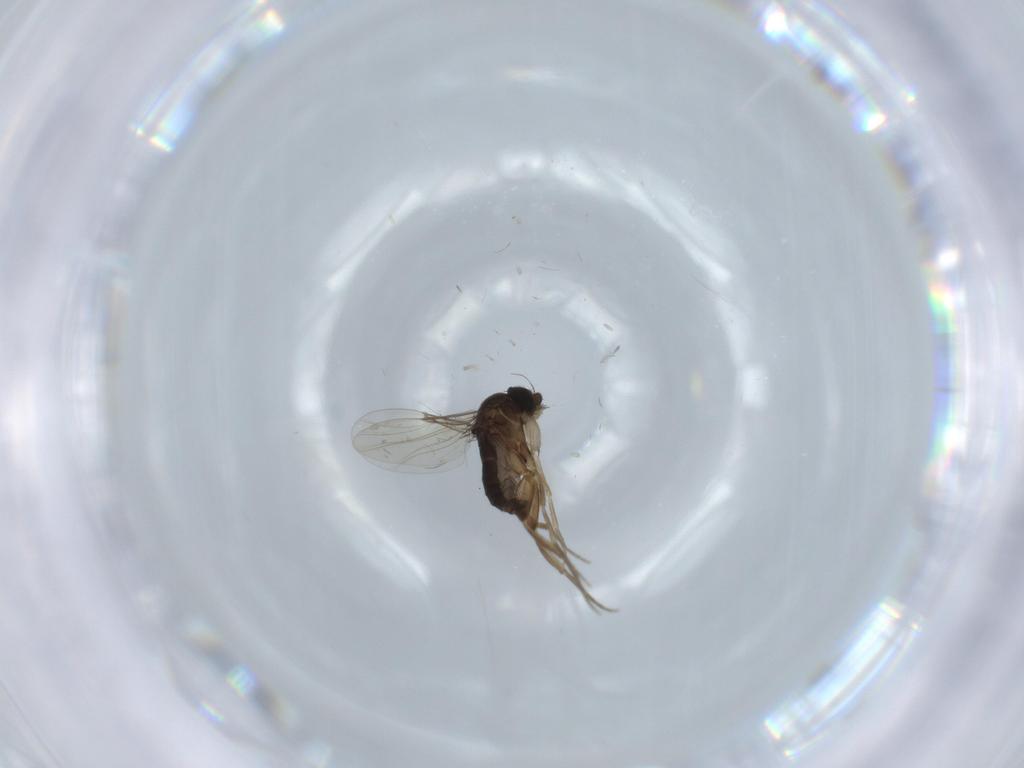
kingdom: Animalia
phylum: Arthropoda
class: Insecta
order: Diptera
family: Phoridae
